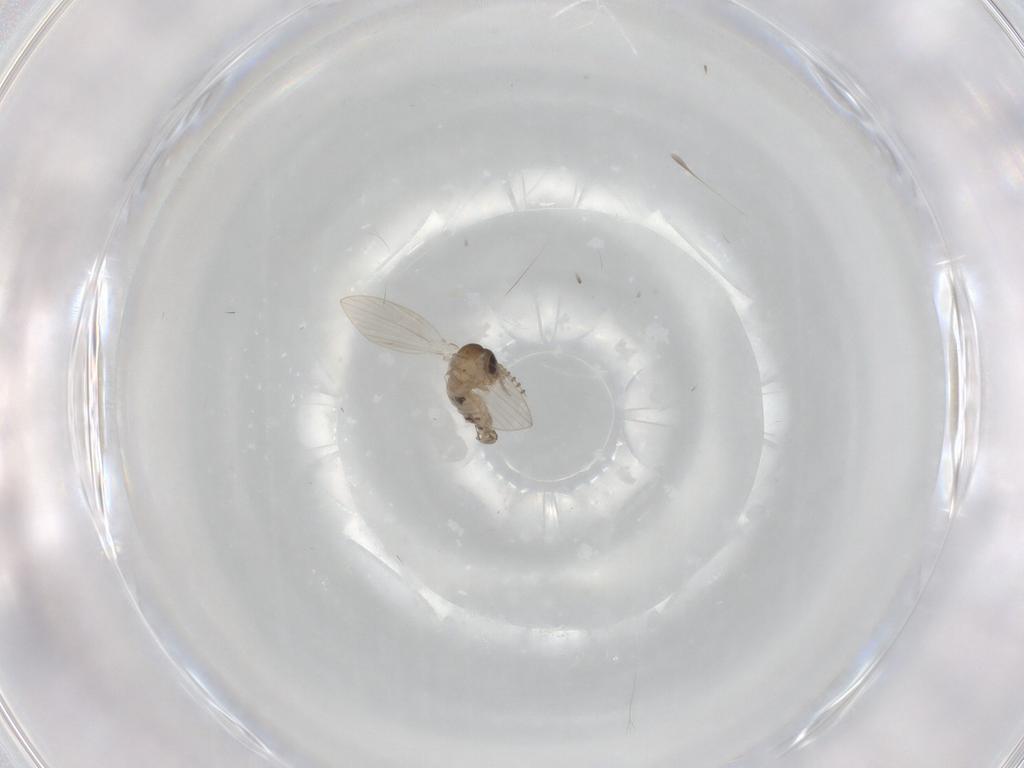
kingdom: Animalia
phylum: Arthropoda
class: Insecta
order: Diptera
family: Psychodidae
